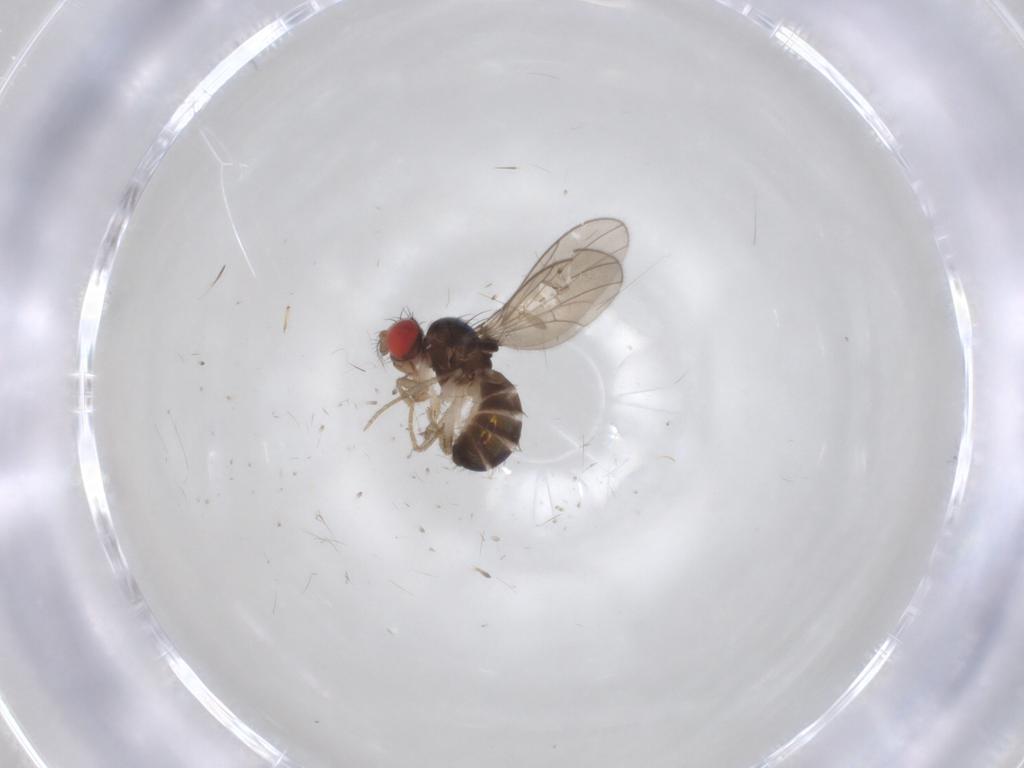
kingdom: Animalia
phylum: Arthropoda
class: Insecta
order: Diptera
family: Drosophilidae
